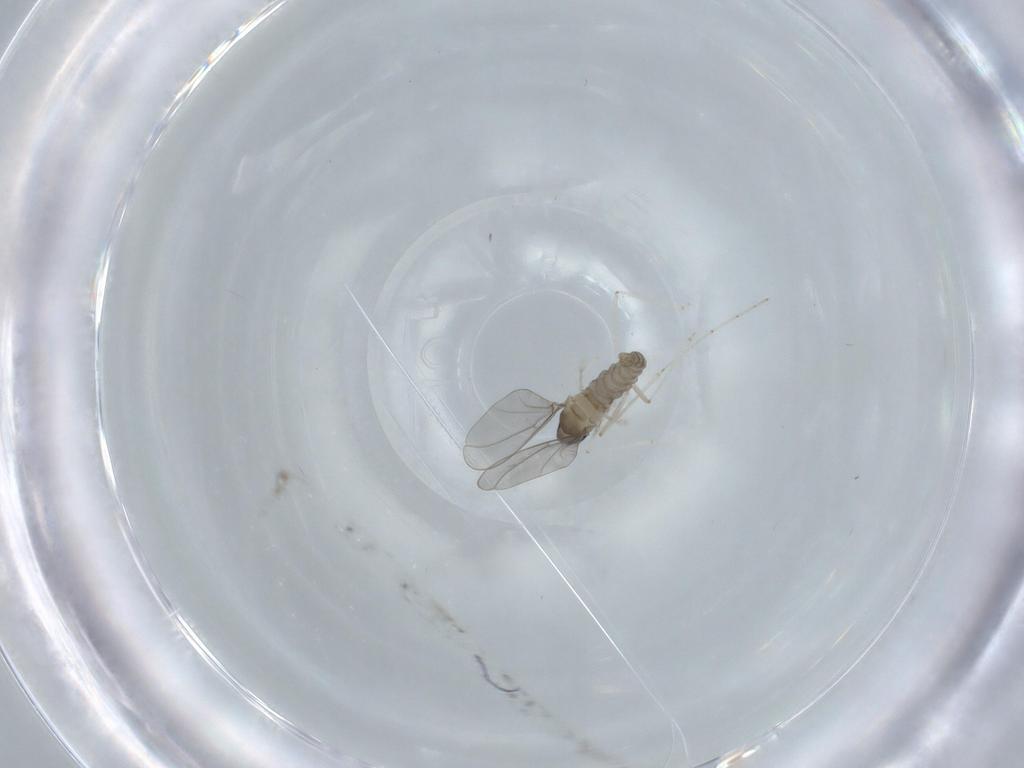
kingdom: Animalia
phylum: Arthropoda
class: Insecta
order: Diptera
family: Cecidomyiidae
